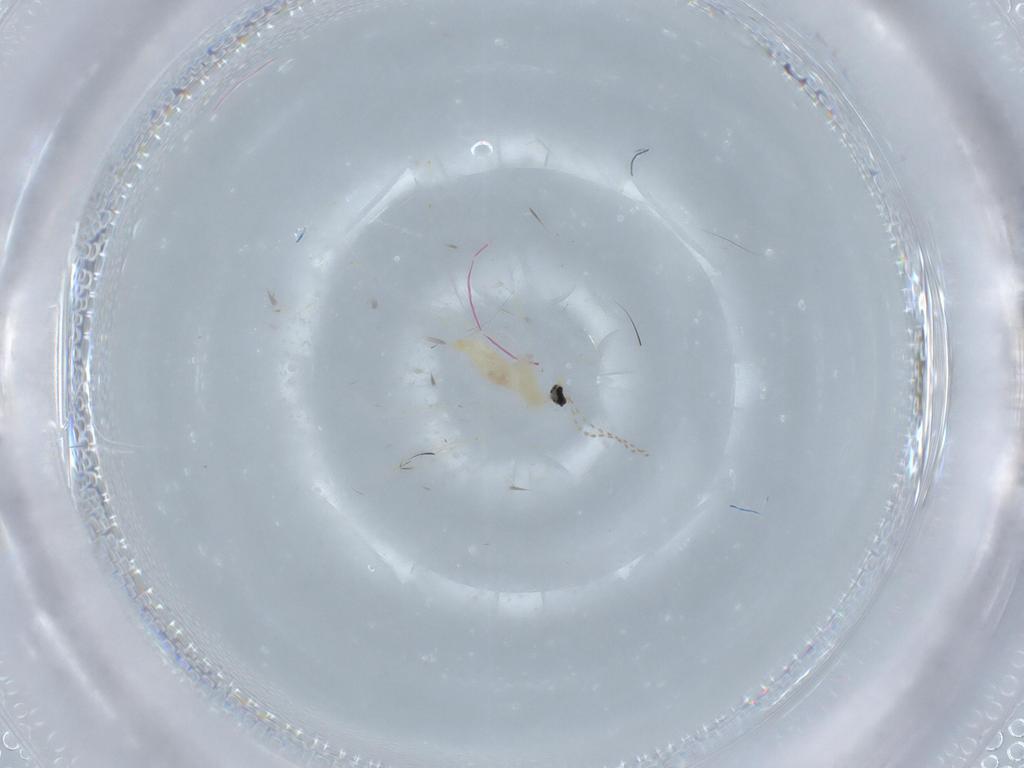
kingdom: Animalia
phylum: Arthropoda
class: Insecta
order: Diptera
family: Cecidomyiidae
